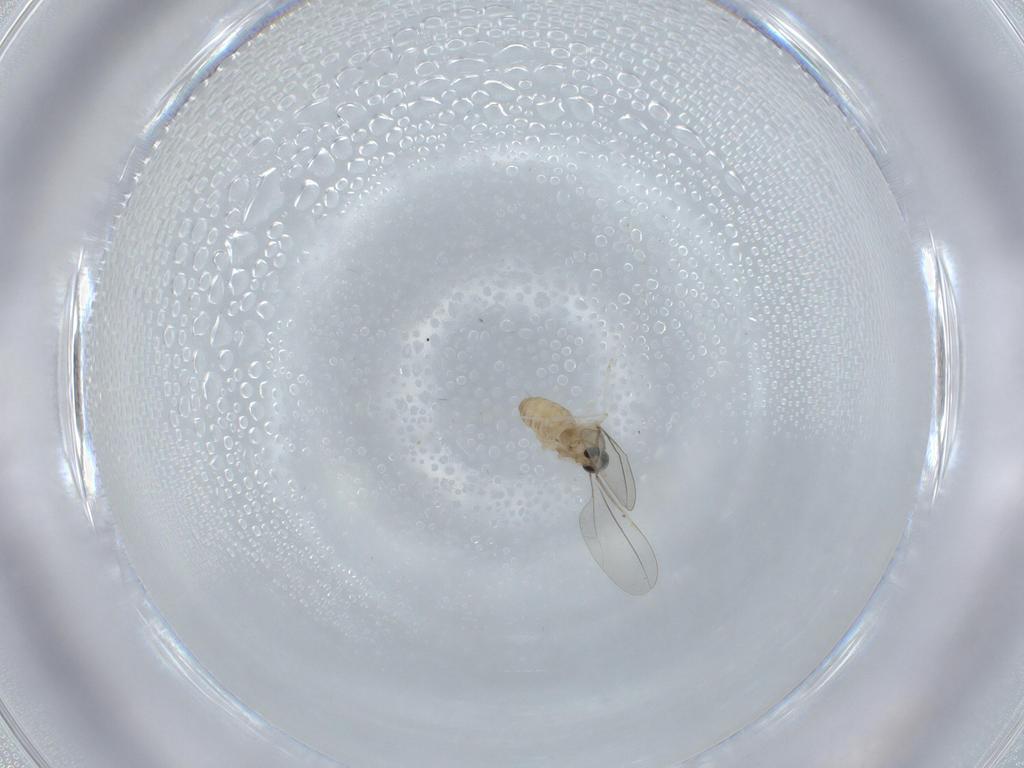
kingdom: Animalia
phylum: Arthropoda
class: Insecta
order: Diptera
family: Cecidomyiidae
